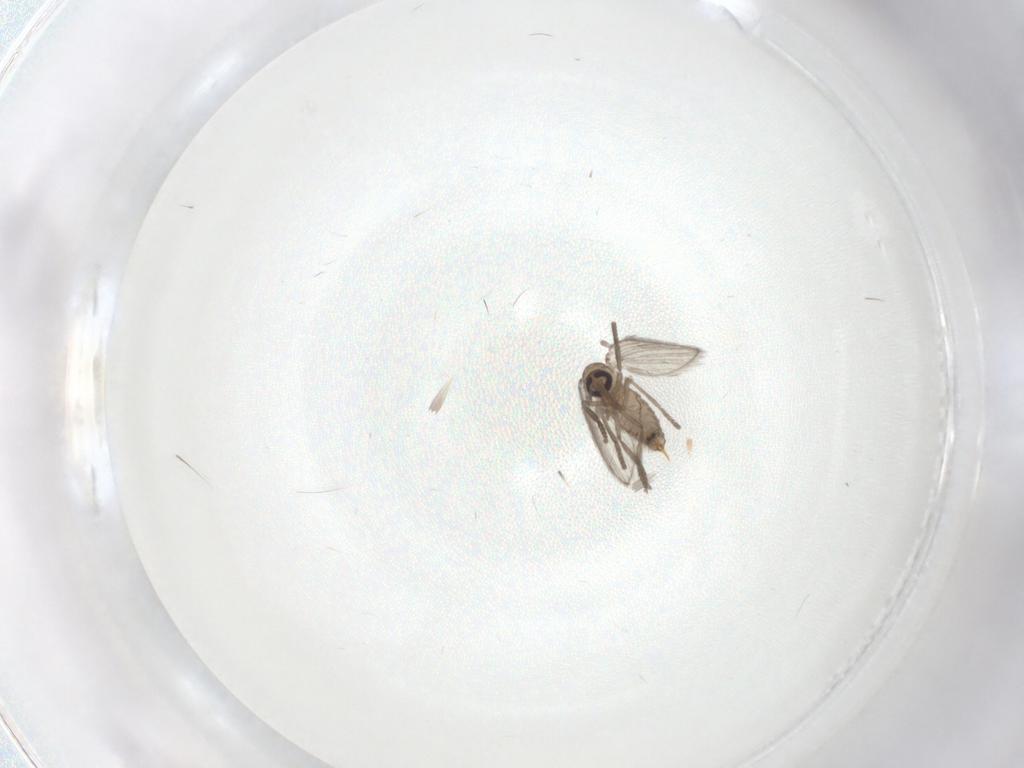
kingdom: Animalia
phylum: Arthropoda
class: Insecta
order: Diptera
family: Psychodidae
